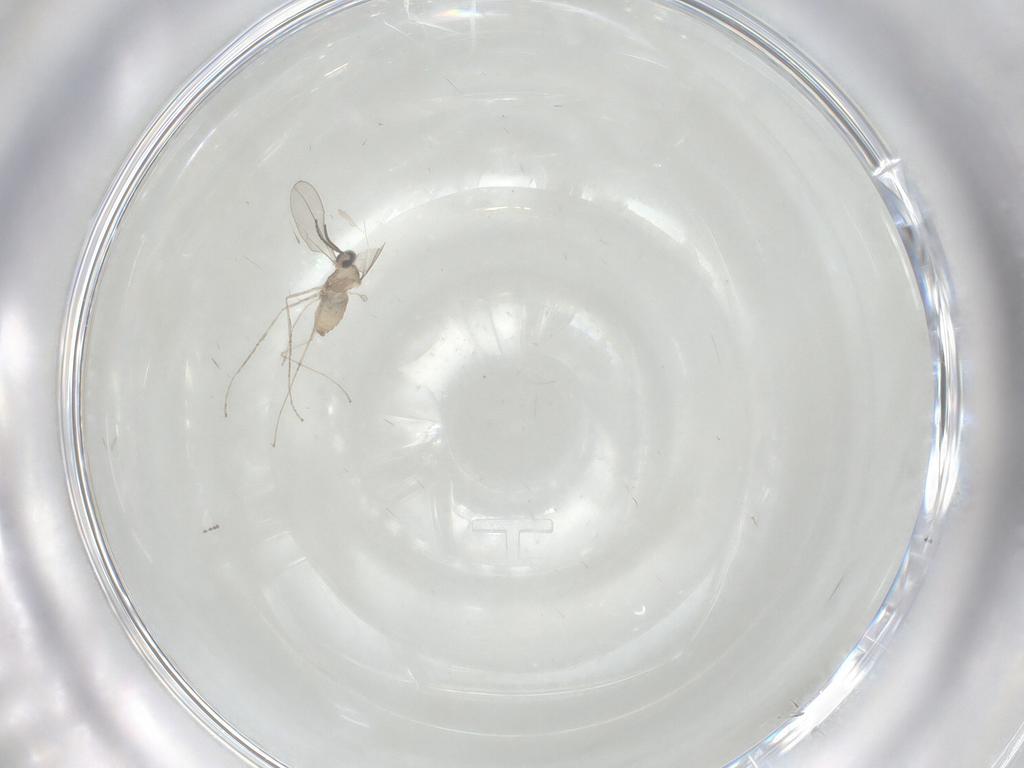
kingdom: Animalia
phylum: Arthropoda
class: Insecta
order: Diptera
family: Cecidomyiidae
